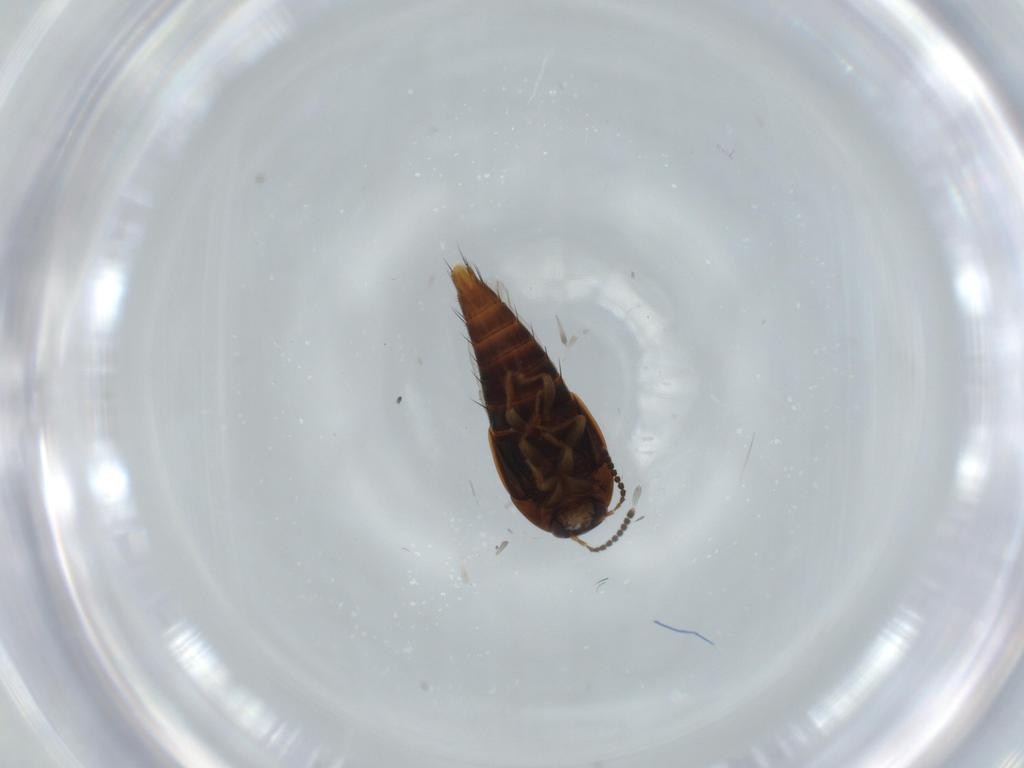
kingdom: Animalia
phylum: Arthropoda
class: Insecta
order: Coleoptera
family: Staphylinidae
